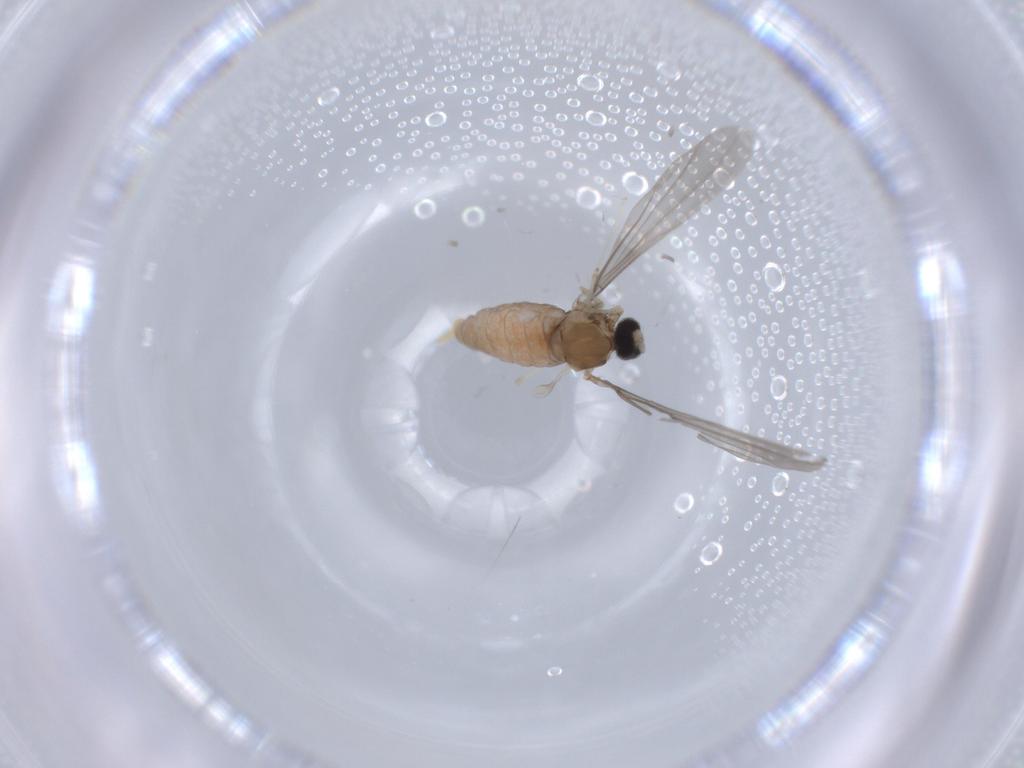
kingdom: Animalia
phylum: Arthropoda
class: Insecta
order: Diptera
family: Cecidomyiidae
